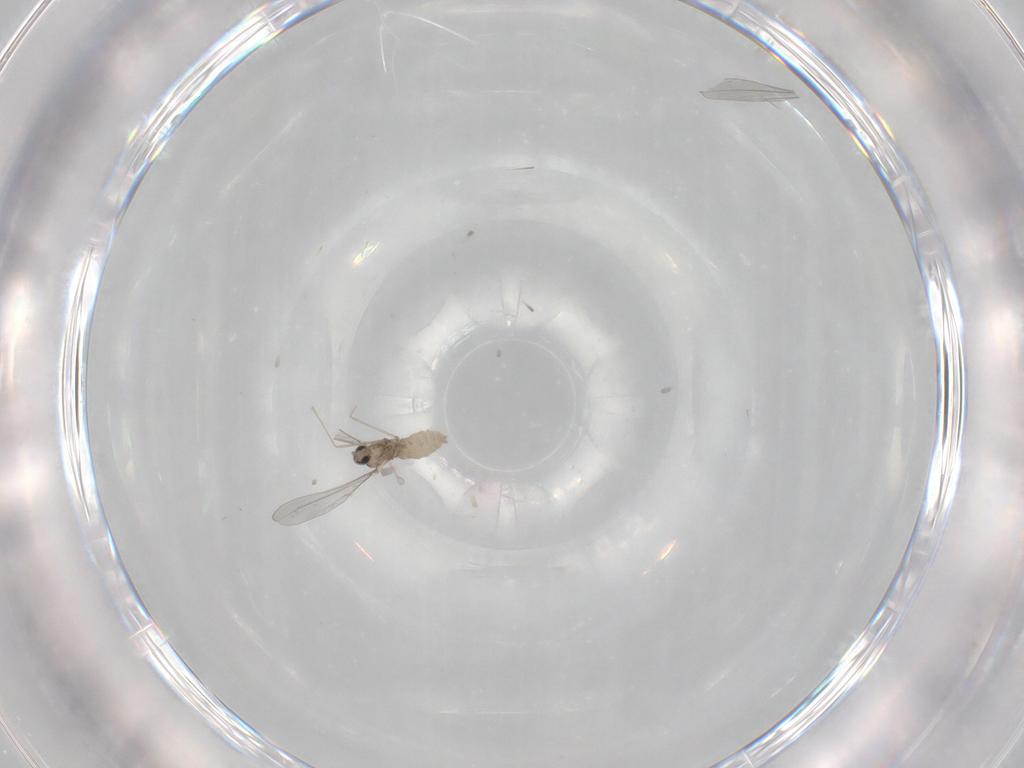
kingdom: Animalia
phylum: Arthropoda
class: Insecta
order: Diptera
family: Cecidomyiidae
